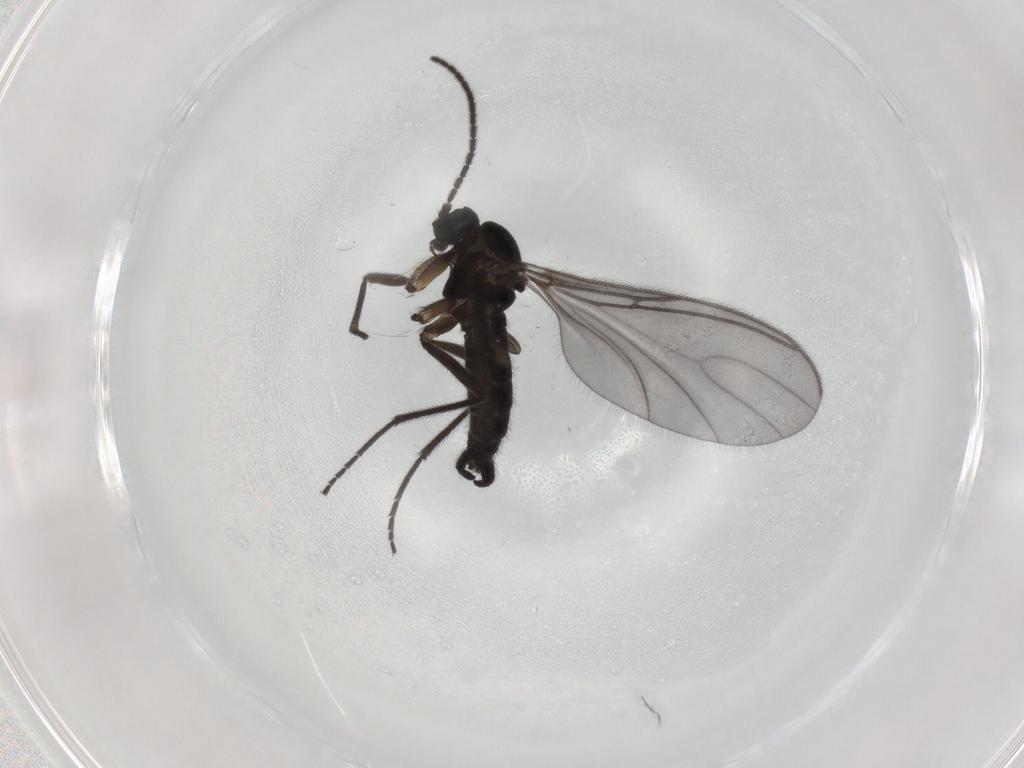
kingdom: Animalia
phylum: Arthropoda
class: Insecta
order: Diptera
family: Sciaridae
